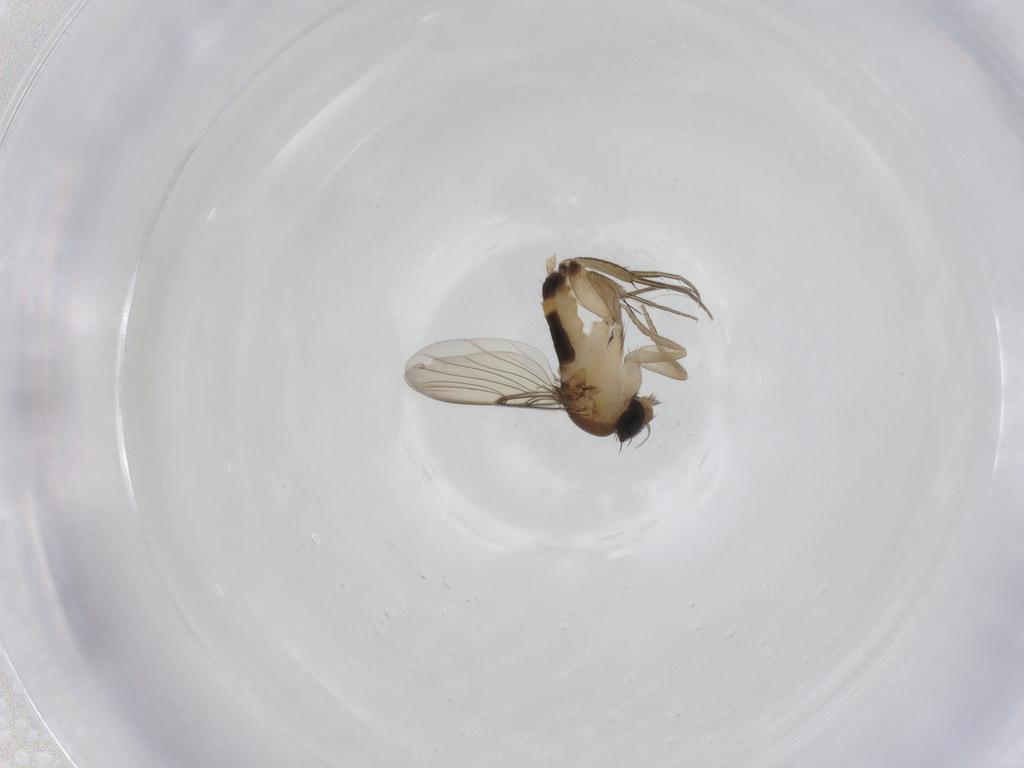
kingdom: Animalia
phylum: Arthropoda
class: Insecta
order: Diptera
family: Phoridae
